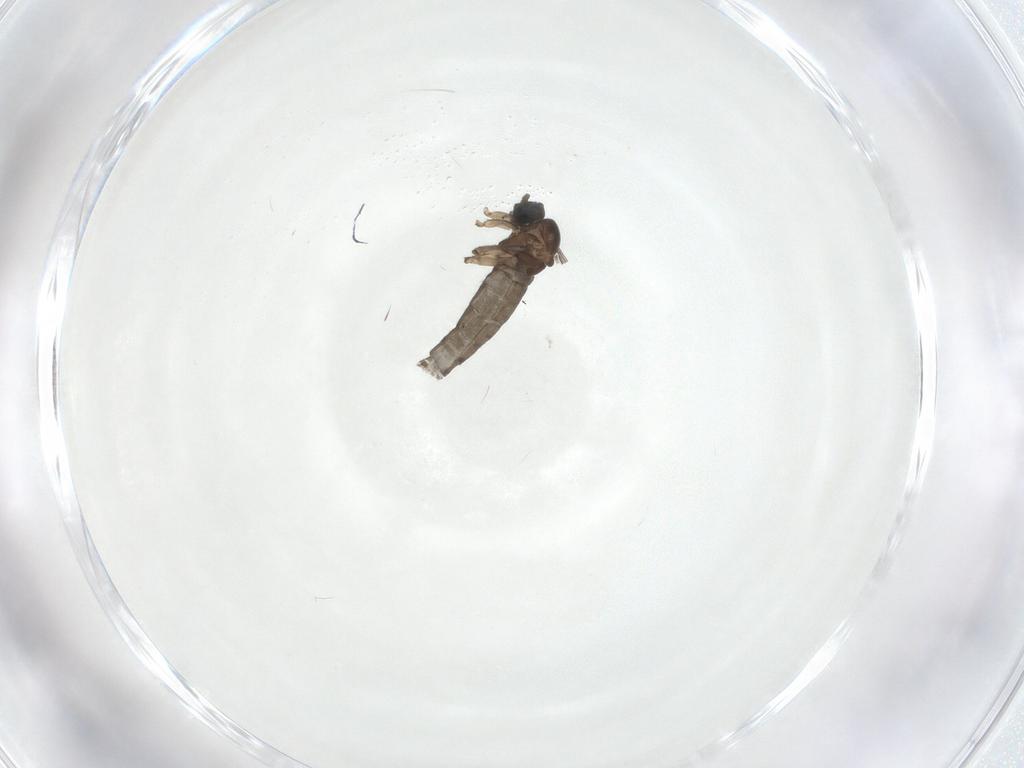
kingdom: Animalia
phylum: Arthropoda
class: Insecta
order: Diptera
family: Sciaridae
